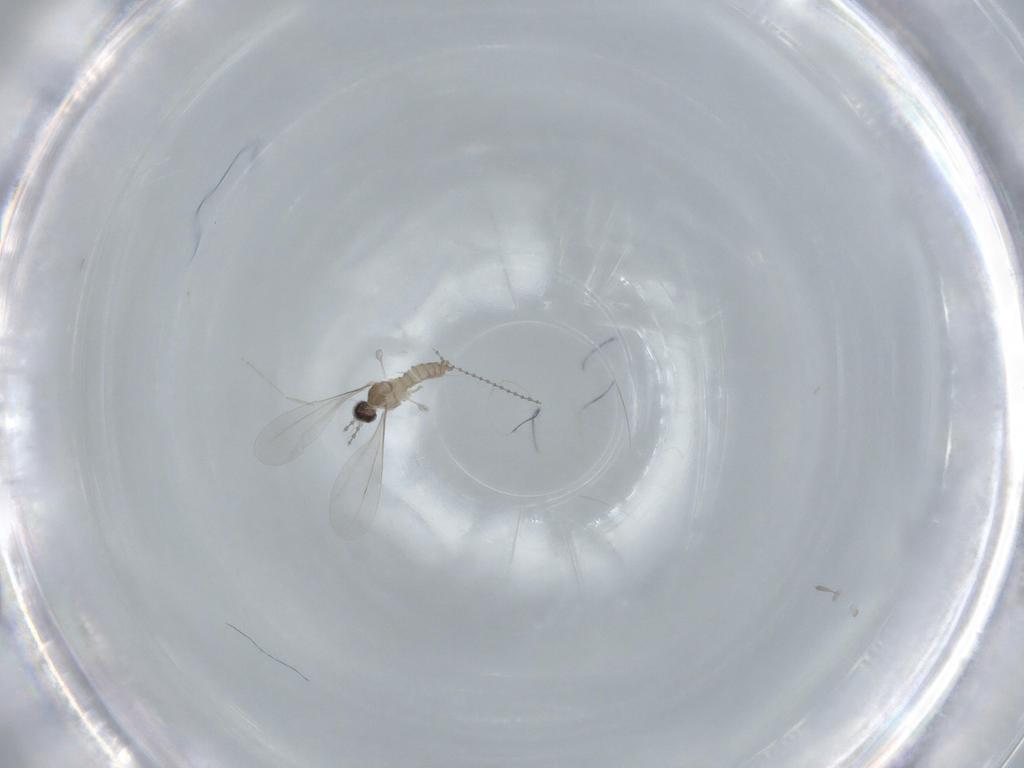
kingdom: Animalia
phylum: Arthropoda
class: Insecta
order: Diptera
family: Cecidomyiidae
